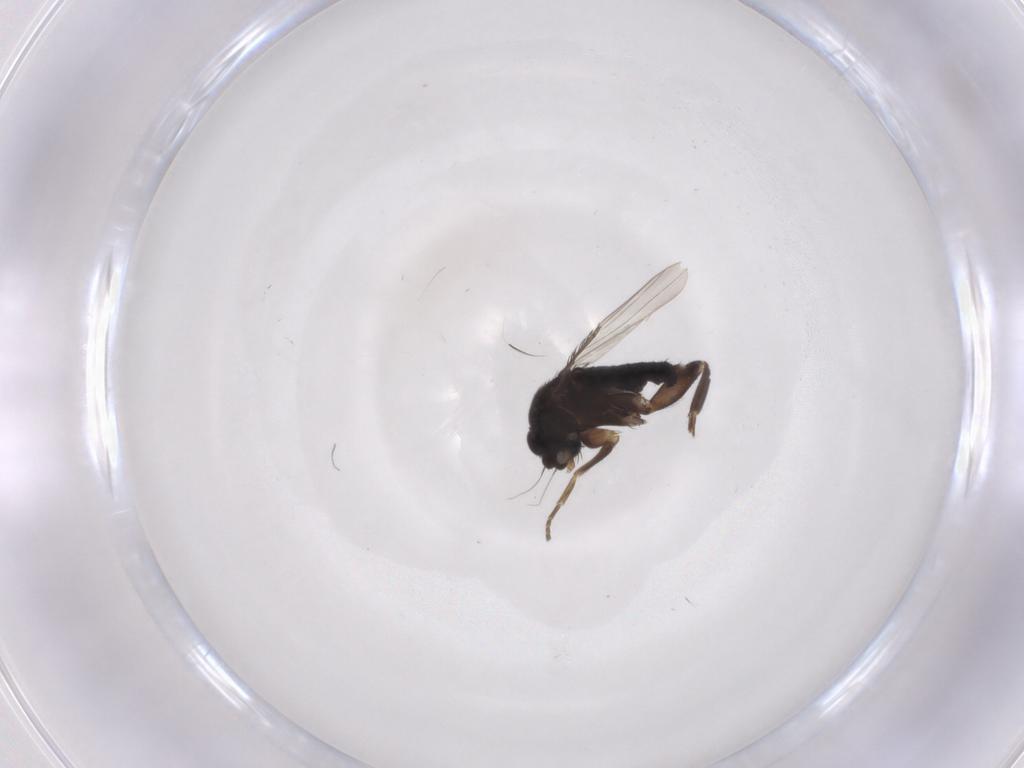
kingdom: Animalia
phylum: Arthropoda
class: Insecta
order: Diptera
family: Phoridae
